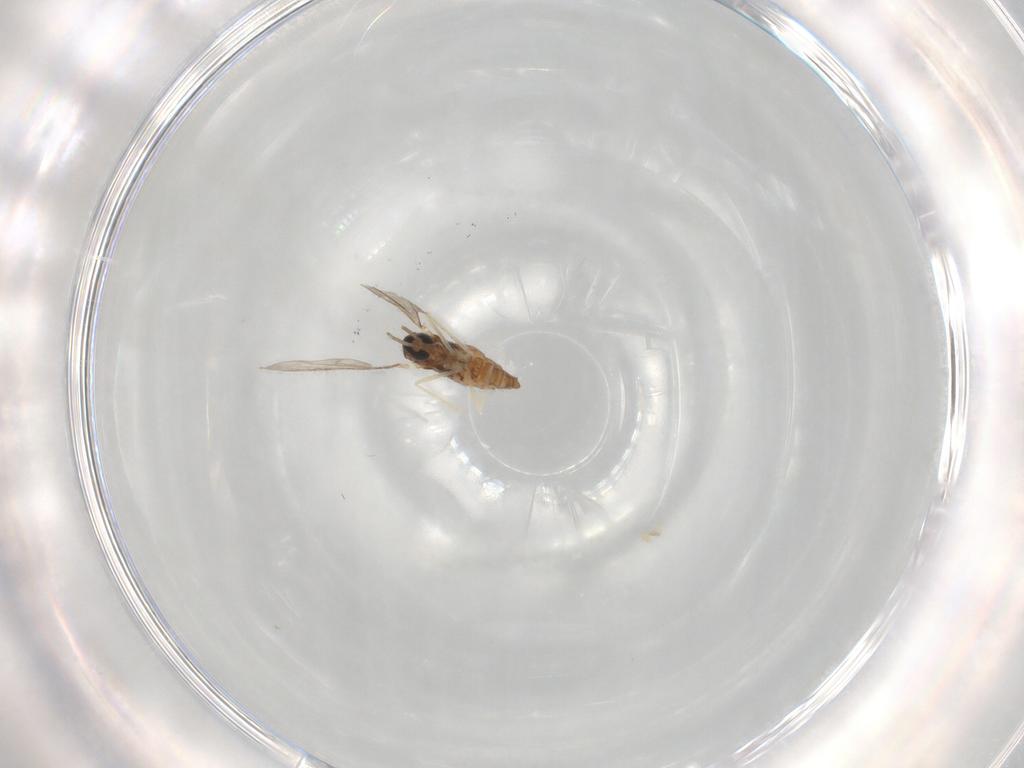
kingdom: Animalia
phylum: Arthropoda
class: Insecta
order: Diptera
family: Cecidomyiidae
